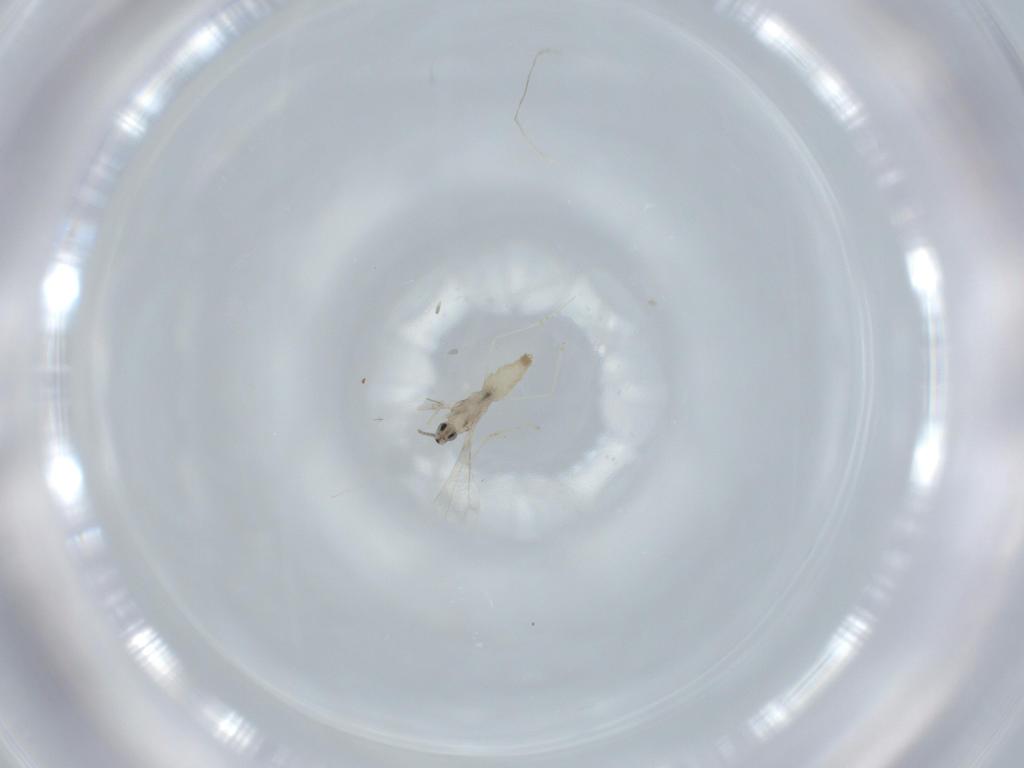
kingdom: Animalia
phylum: Arthropoda
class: Insecta
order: Diptera
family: Cecidomyiidae
